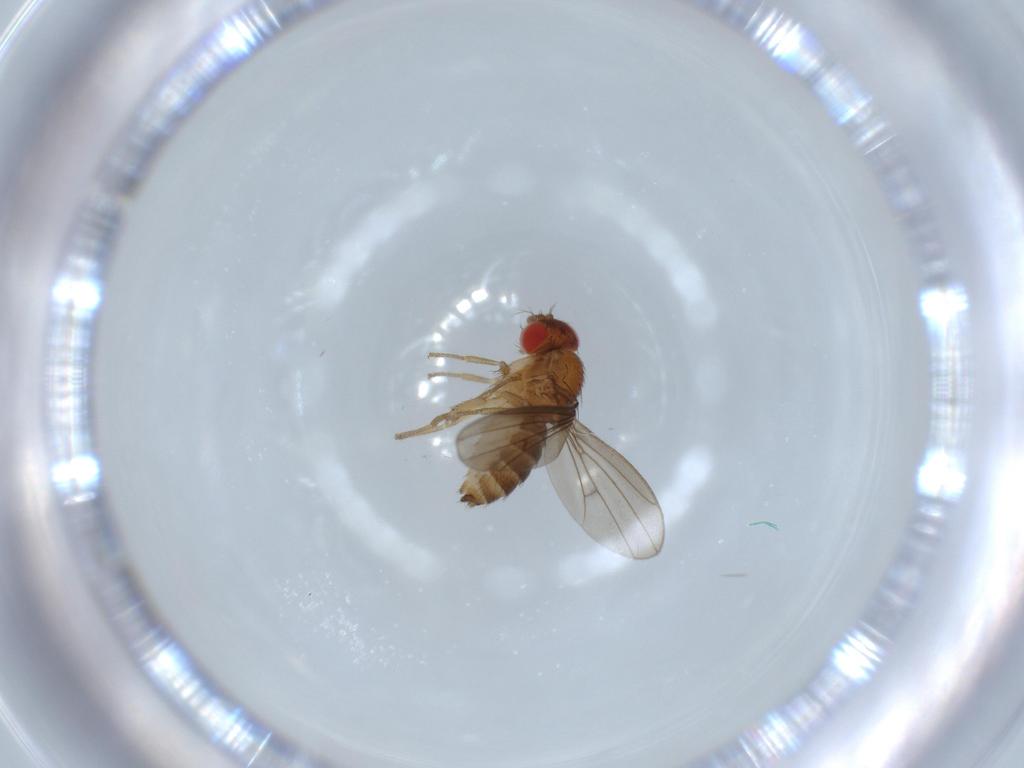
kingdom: Animalia
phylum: Arthropoda
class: Insecta
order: Diptera
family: Drosophilidae
